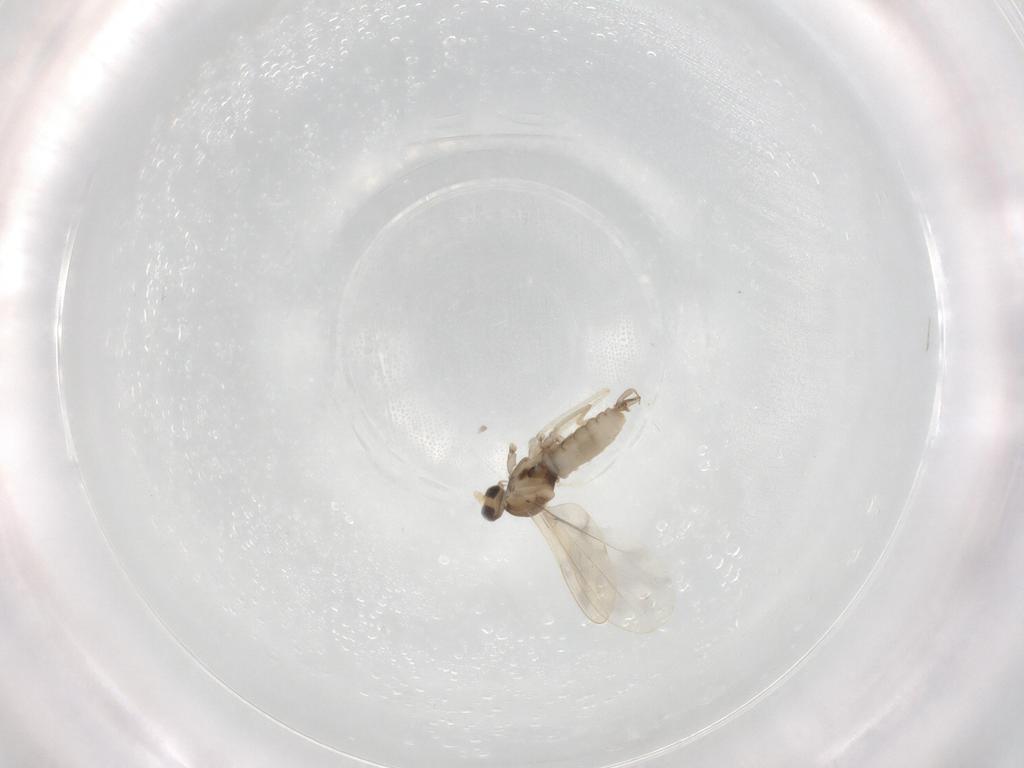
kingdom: Animalia
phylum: Arthropoda
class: Insecta
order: Diptera
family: Cecidomyiidae
